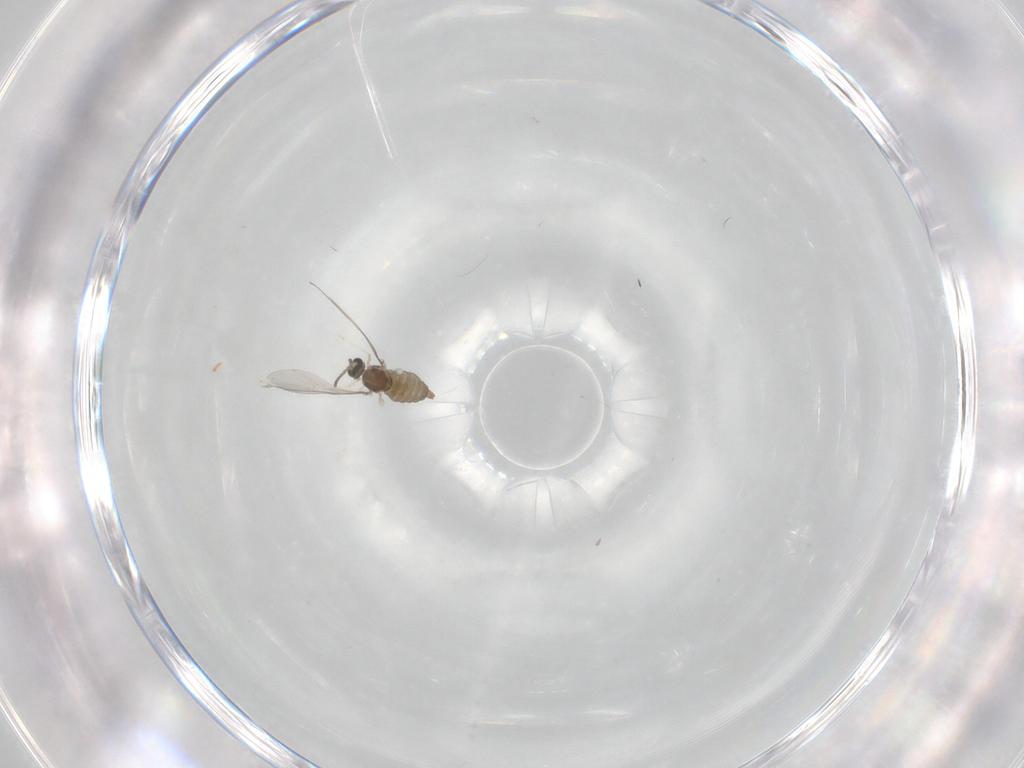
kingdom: Animalia
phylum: Arthropoda
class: Insecta
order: Diptera
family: Cecidomyiidae
